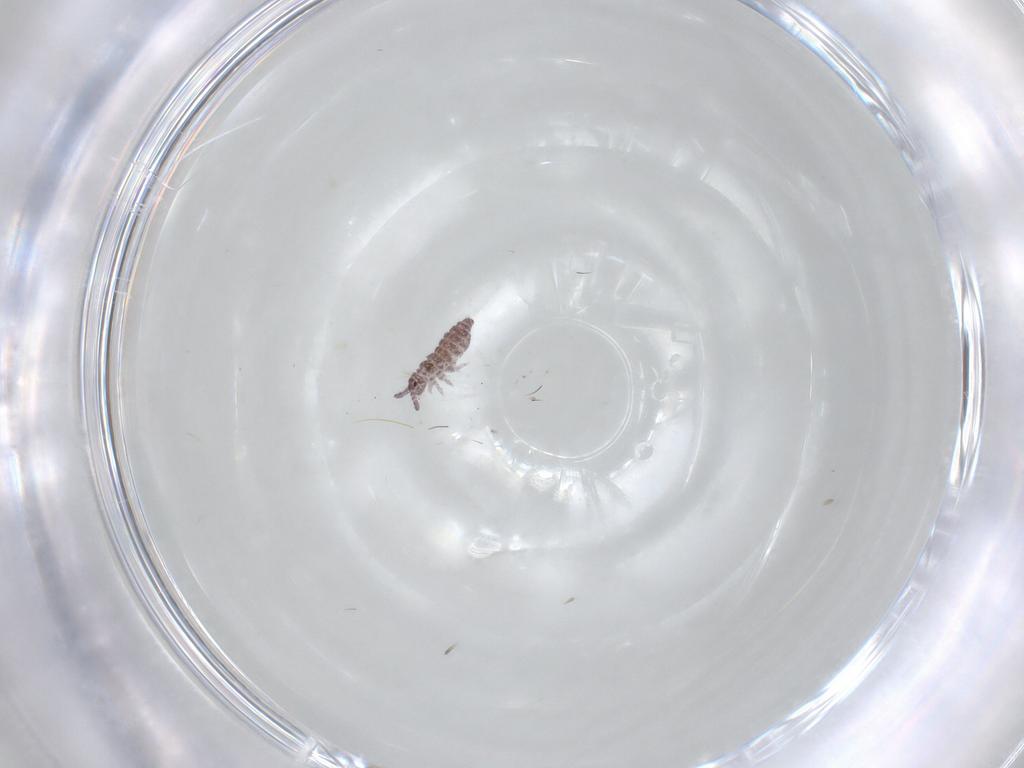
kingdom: Animalia
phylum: Arthropoda
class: Collembola
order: Poduromorpha
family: Hypogastruridae
